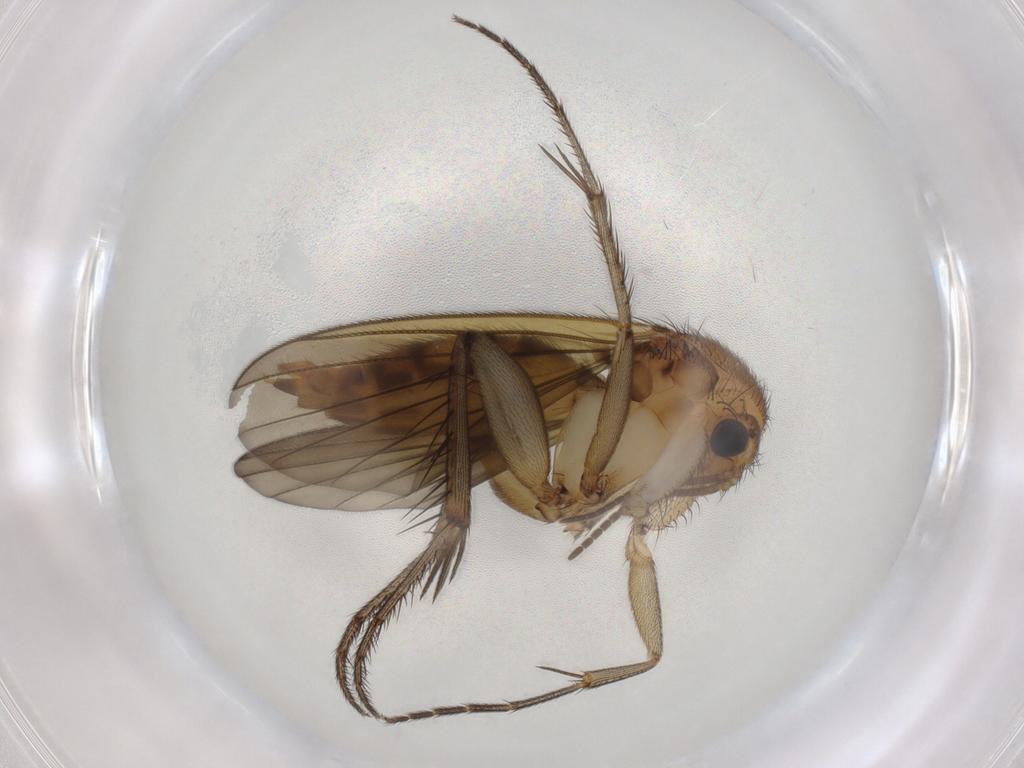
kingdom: Animalia
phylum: Arthropoda
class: Insecta
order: Diptera
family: Mycetophilidae
